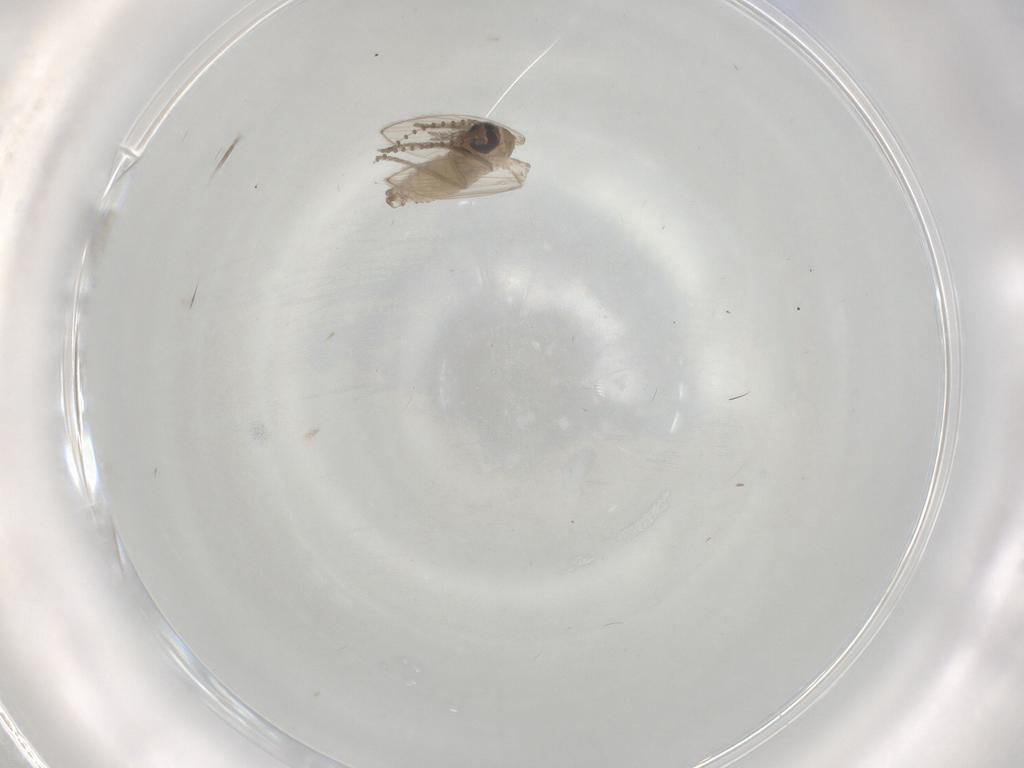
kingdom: Animalia
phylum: Arthropoda
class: Insecta
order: Diptera
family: Psychodidae
